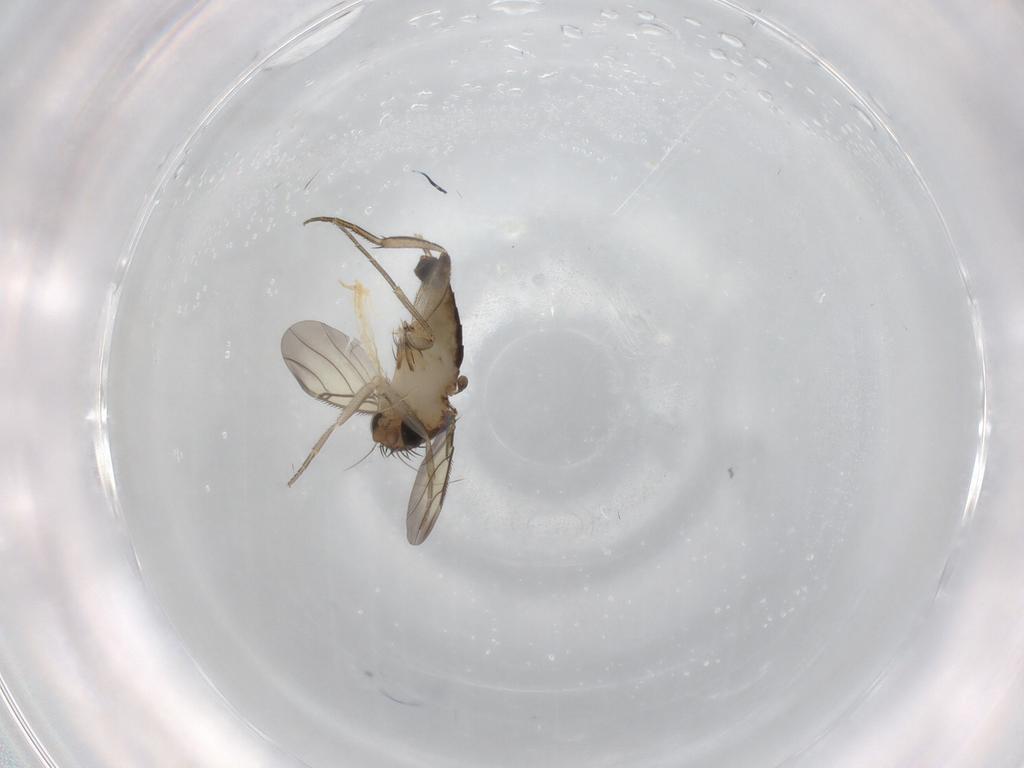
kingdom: Animalia
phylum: Arthropoda
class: Insecta
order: Diptera
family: Phoridae
